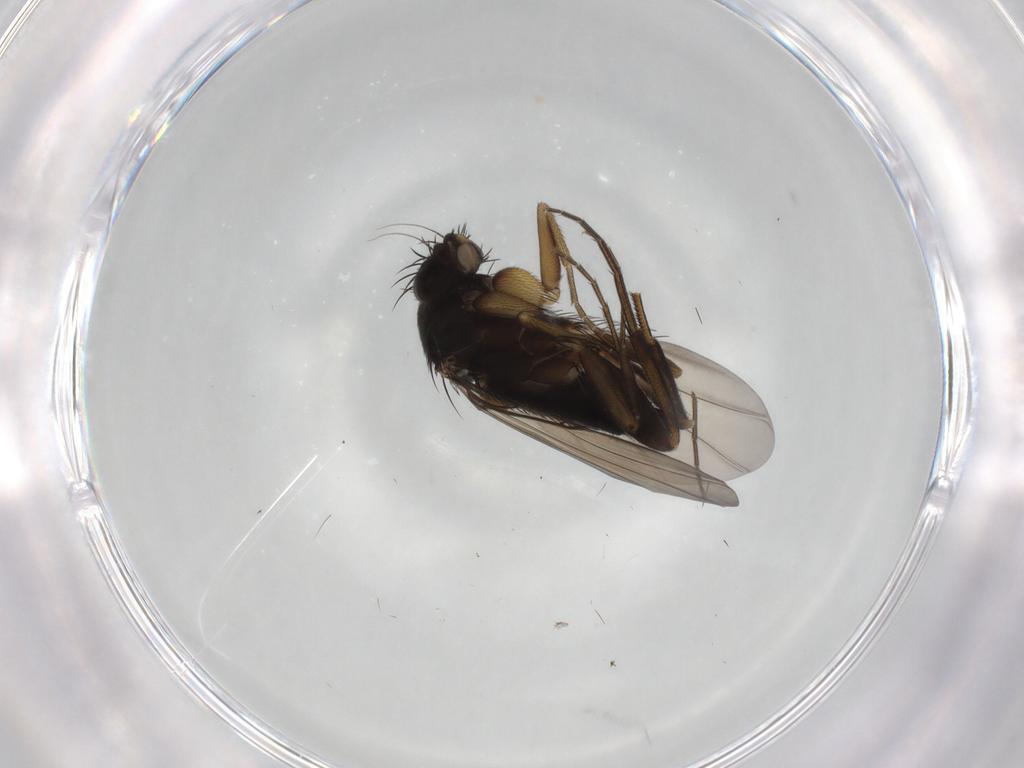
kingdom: Animalia
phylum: Arthropoda
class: Insecta
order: Diptera
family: Phoridae
